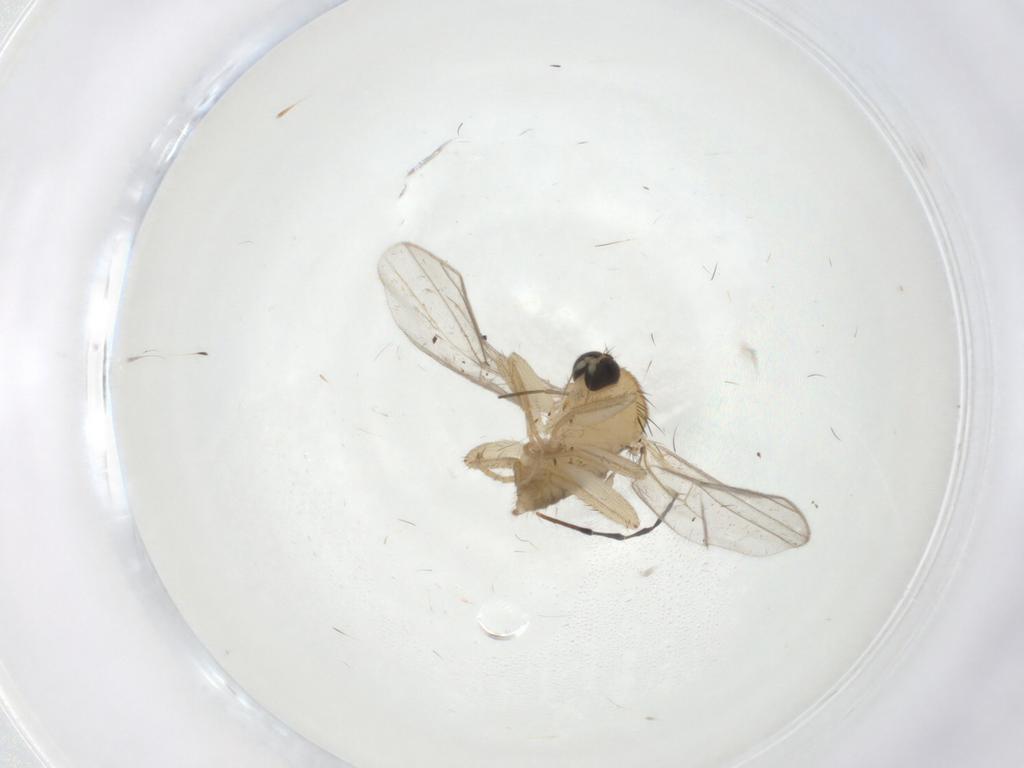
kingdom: Animalia
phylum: Arthropoda
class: Insecta
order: Diptera
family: Hybotidae
